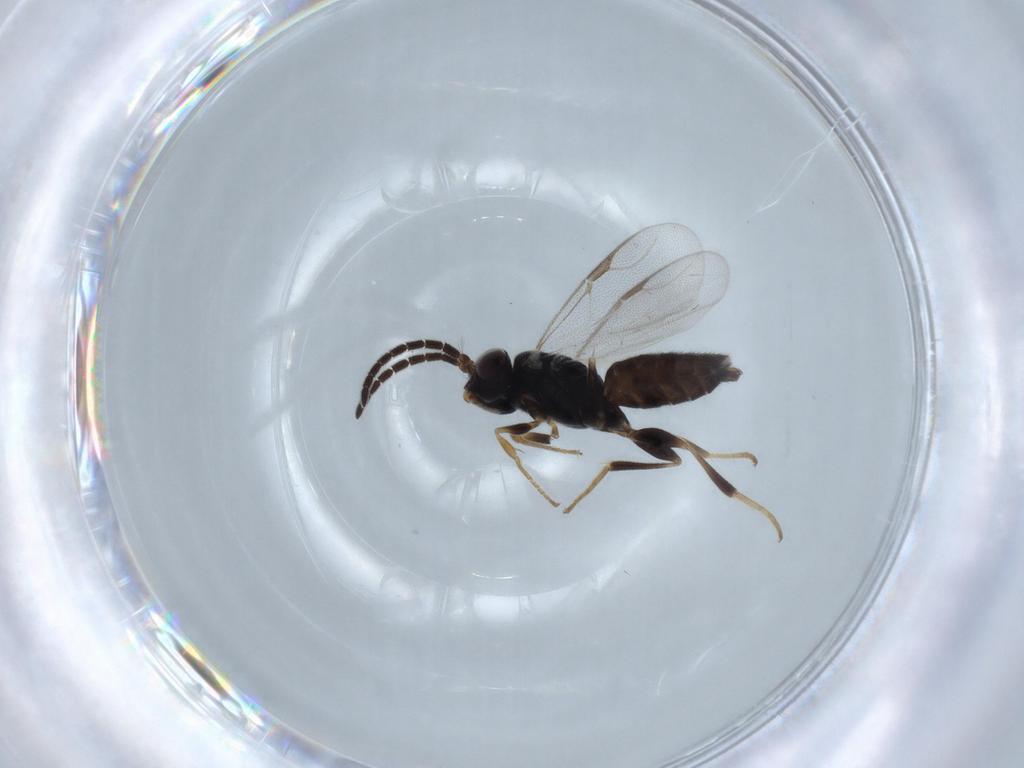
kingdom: Animalia
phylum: Arthropoda
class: Insecta
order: Hymenoptera
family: Dryinidae
